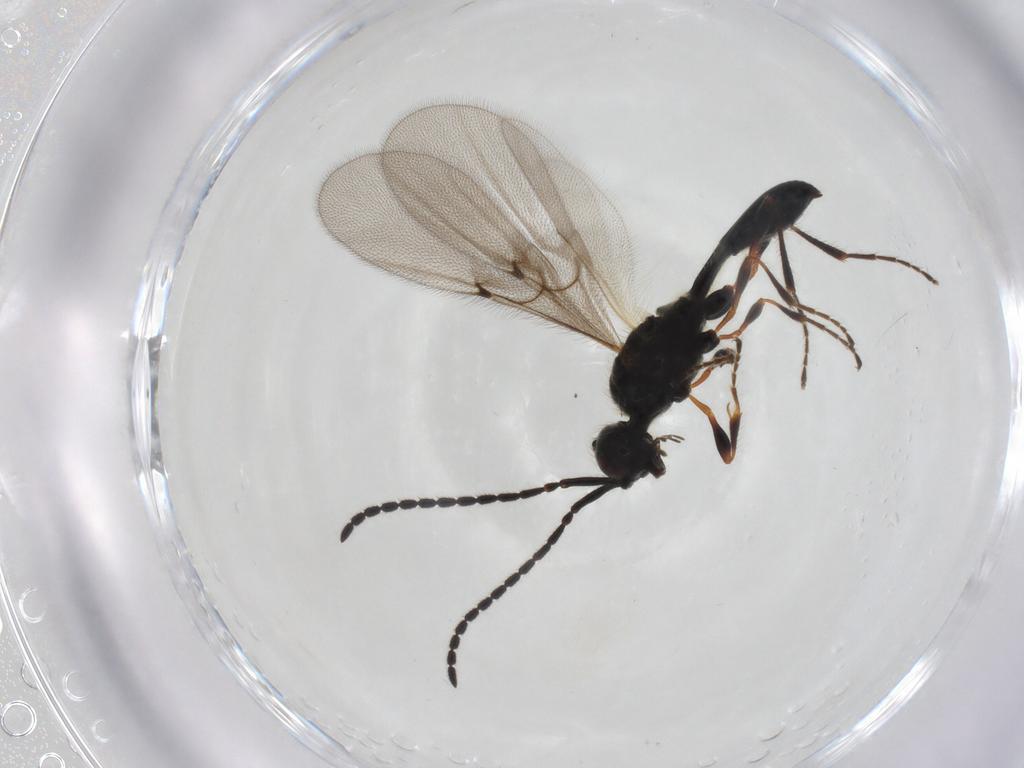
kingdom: Animalia
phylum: Arthropoda
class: Insecta
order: Hymenoptera
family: Diapriidae
